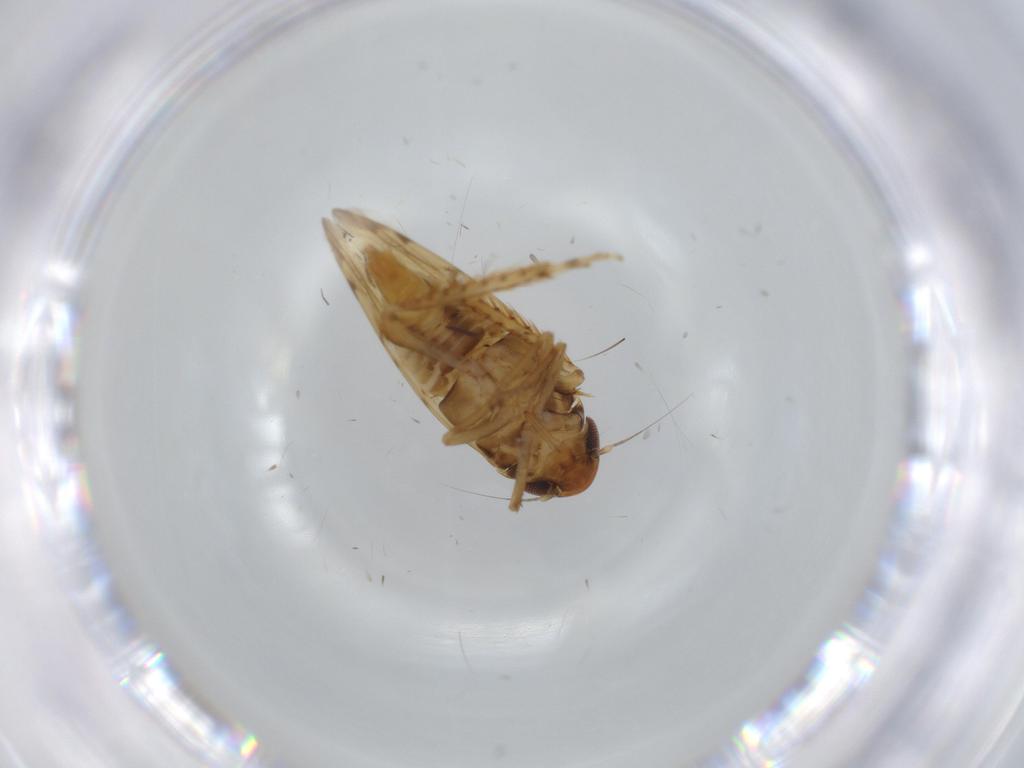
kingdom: Animalia
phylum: Arthropoda
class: Insecta
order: Hemiptera
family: Cicadellidae
